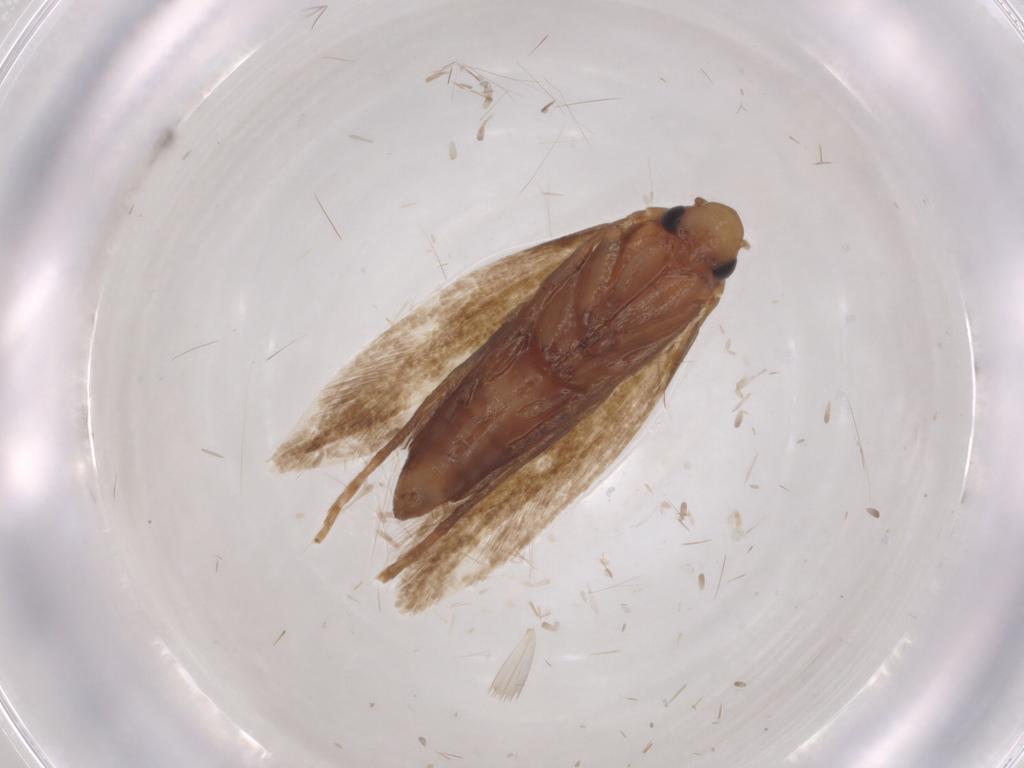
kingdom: Animalia
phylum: Arthropoda
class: Insecta
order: Lepidoptera
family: Tineidae
